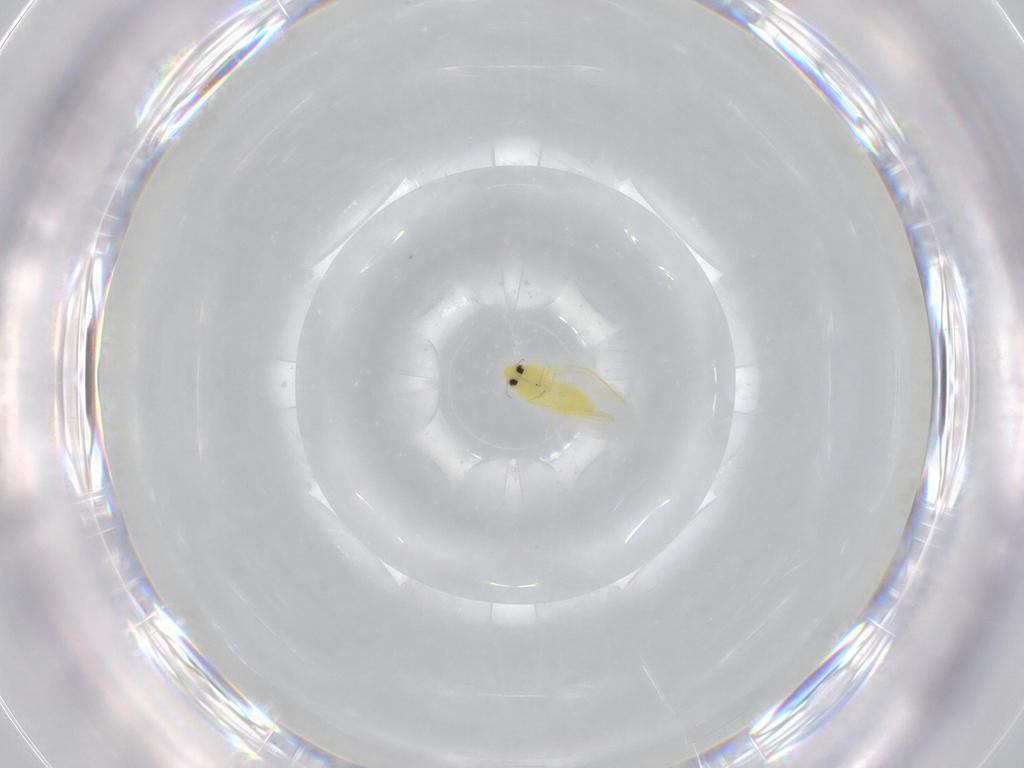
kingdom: Animalia
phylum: Arthropoda
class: Insecta
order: Hemiptera
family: Aleyrodidae
